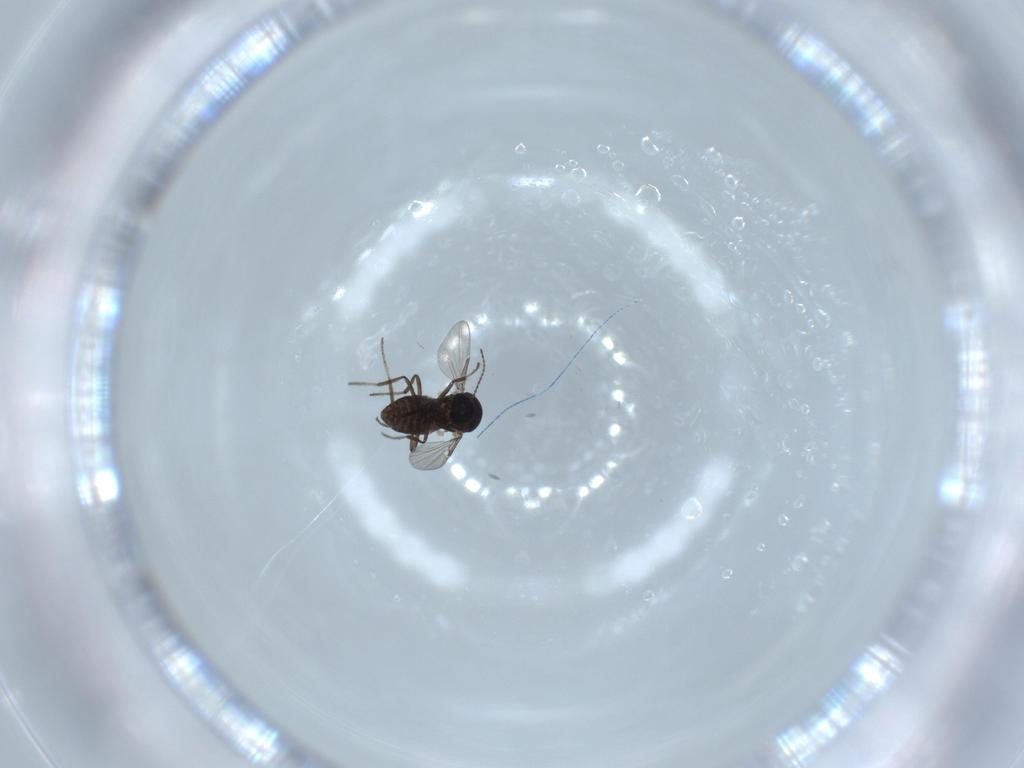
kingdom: Animalia
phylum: Arthropoda
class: Insecta
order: Diptera
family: Ceratopogonidae
